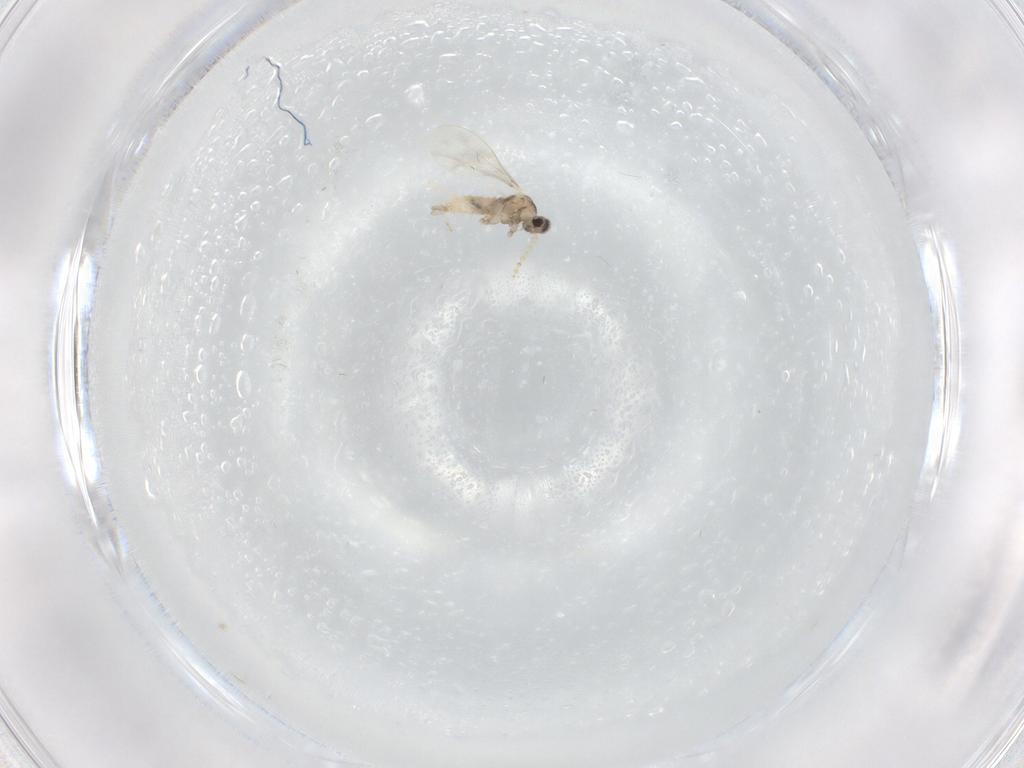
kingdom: Animalia
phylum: Arthropoda
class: Insecta
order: Diptera
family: Cecidomyiidae
